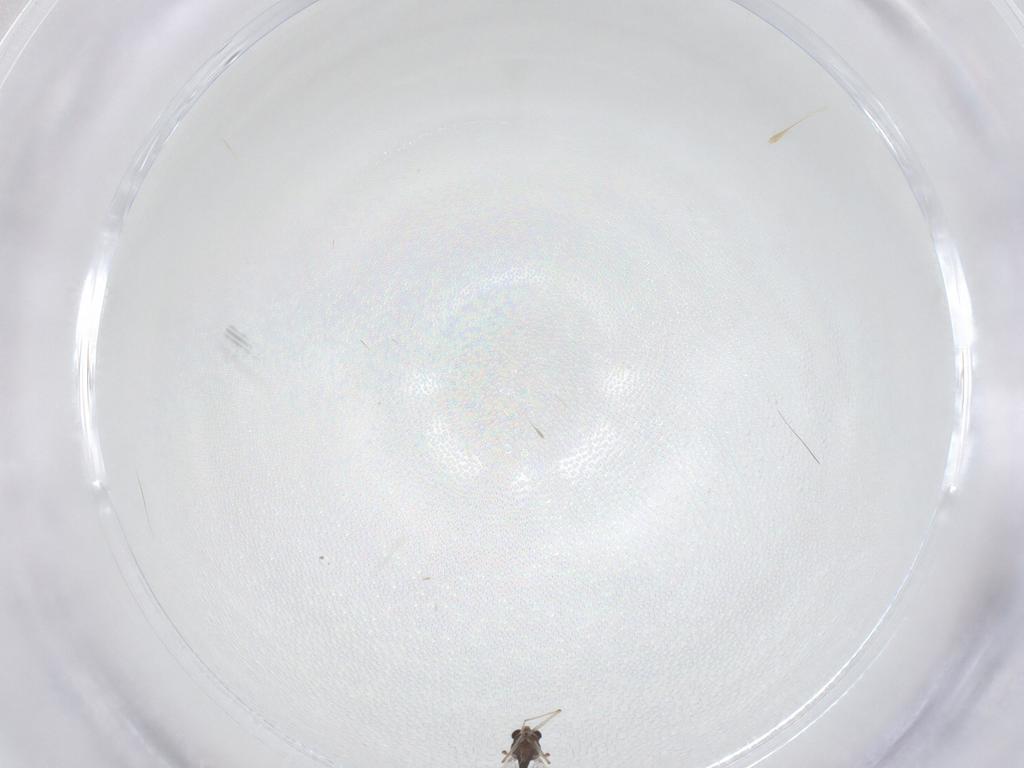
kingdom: Animalia
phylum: Arthropoda
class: Insecta
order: Diptera
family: Chironomidae
